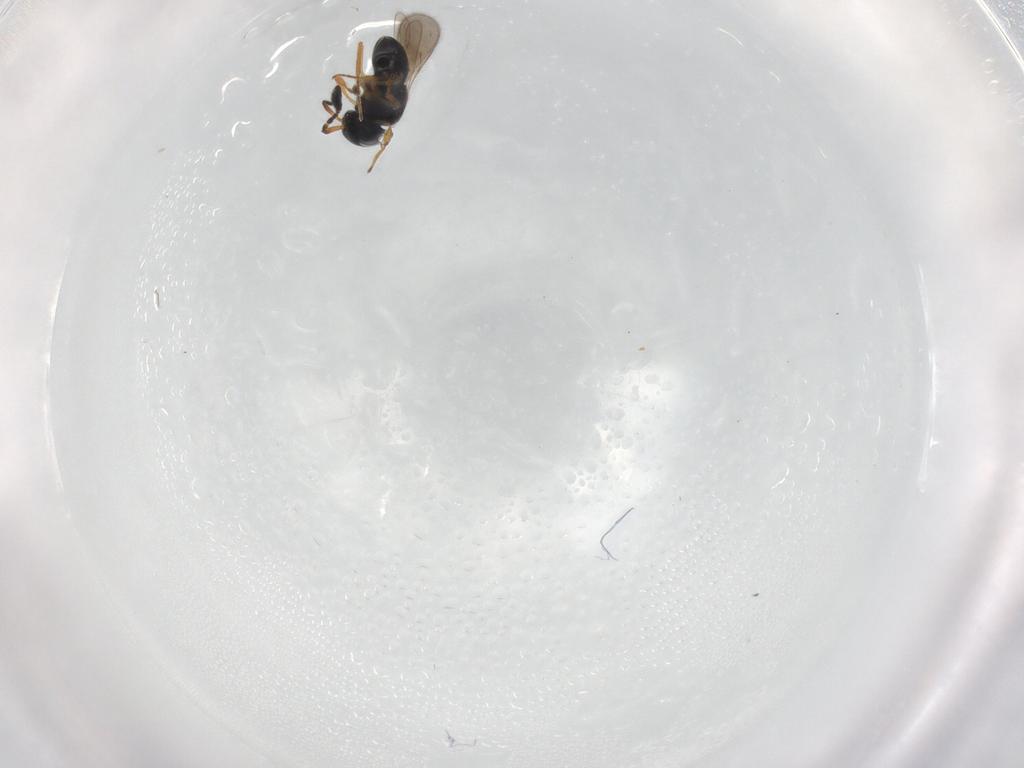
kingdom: Animalia
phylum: Arthropoda
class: Insecta
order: Hymenoptera
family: Scelionidae
